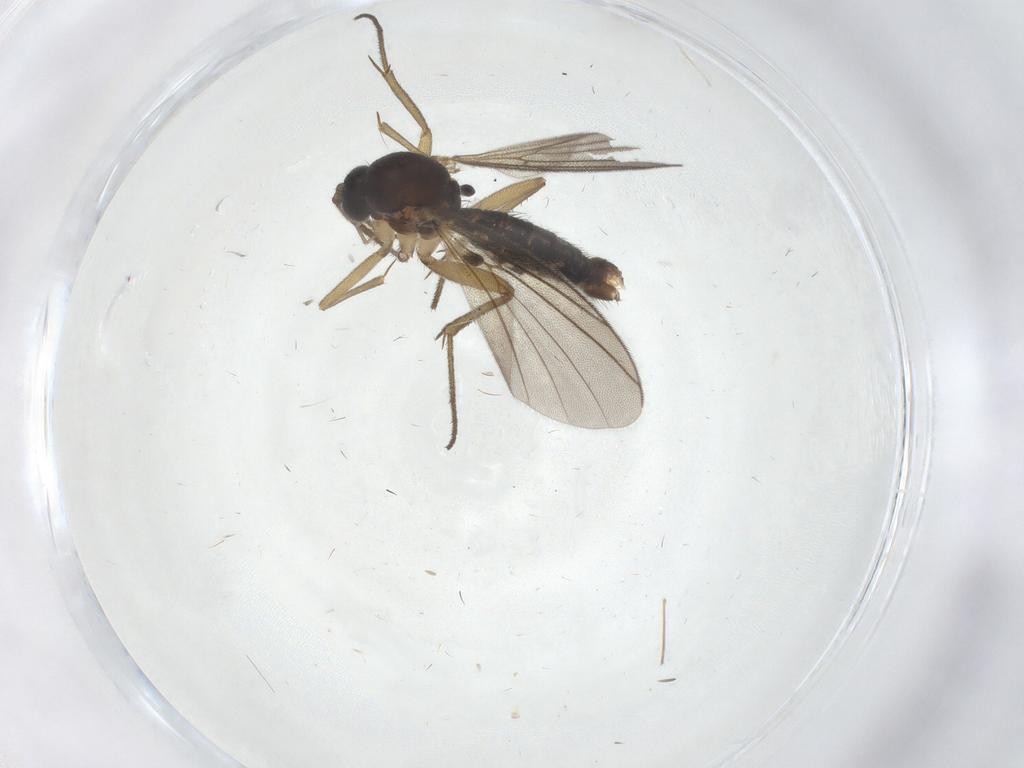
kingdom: Animalia
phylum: Arthropoda
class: Insecta
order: Diptera
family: Mycetophilidae
